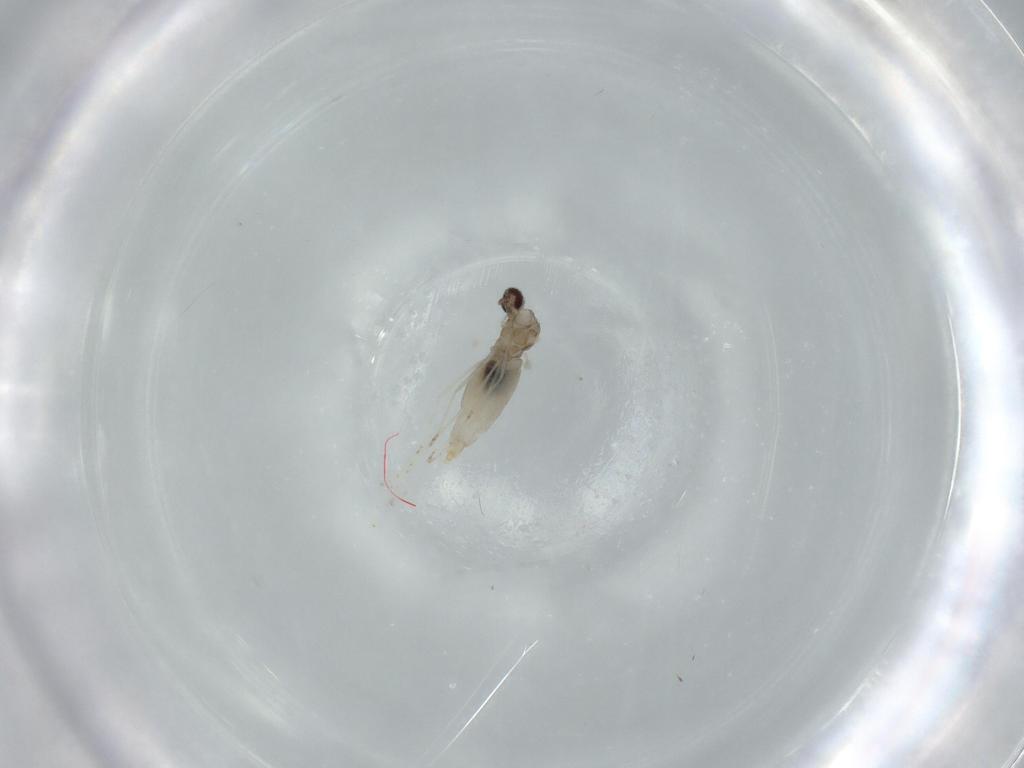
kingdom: Animalia
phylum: Arthropoda
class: Insecta
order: Diptera
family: Cecidomyiidae
